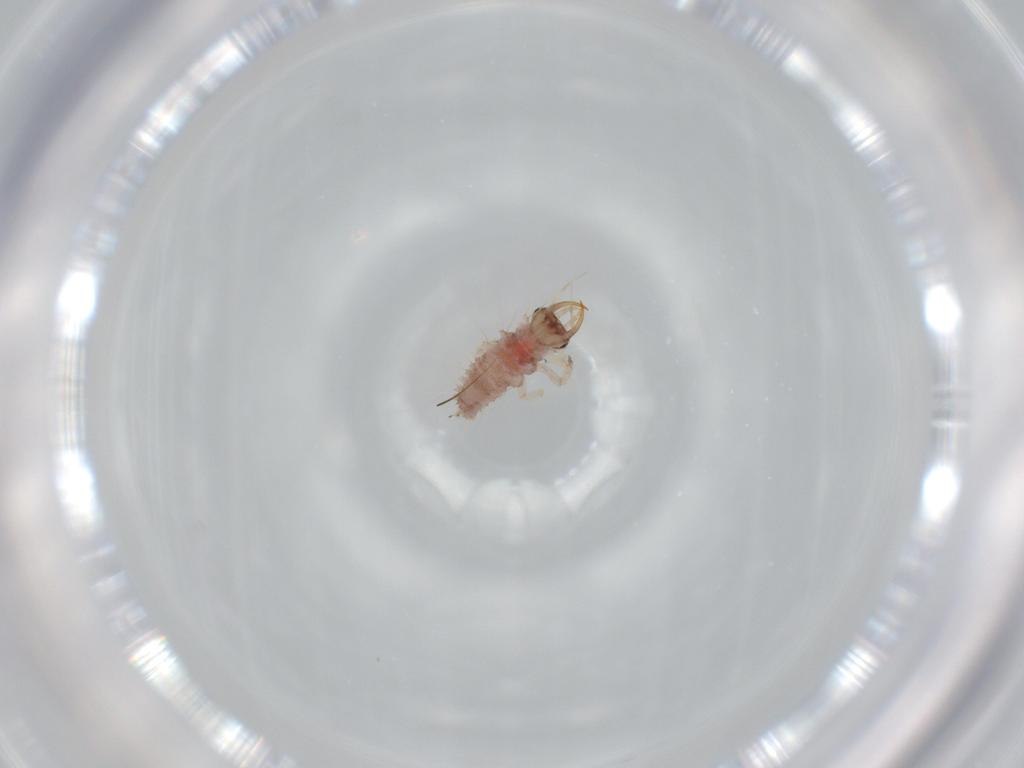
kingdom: Animalia
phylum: Arthropoda
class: Insecta
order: Neuroptera
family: Chrysopidae
